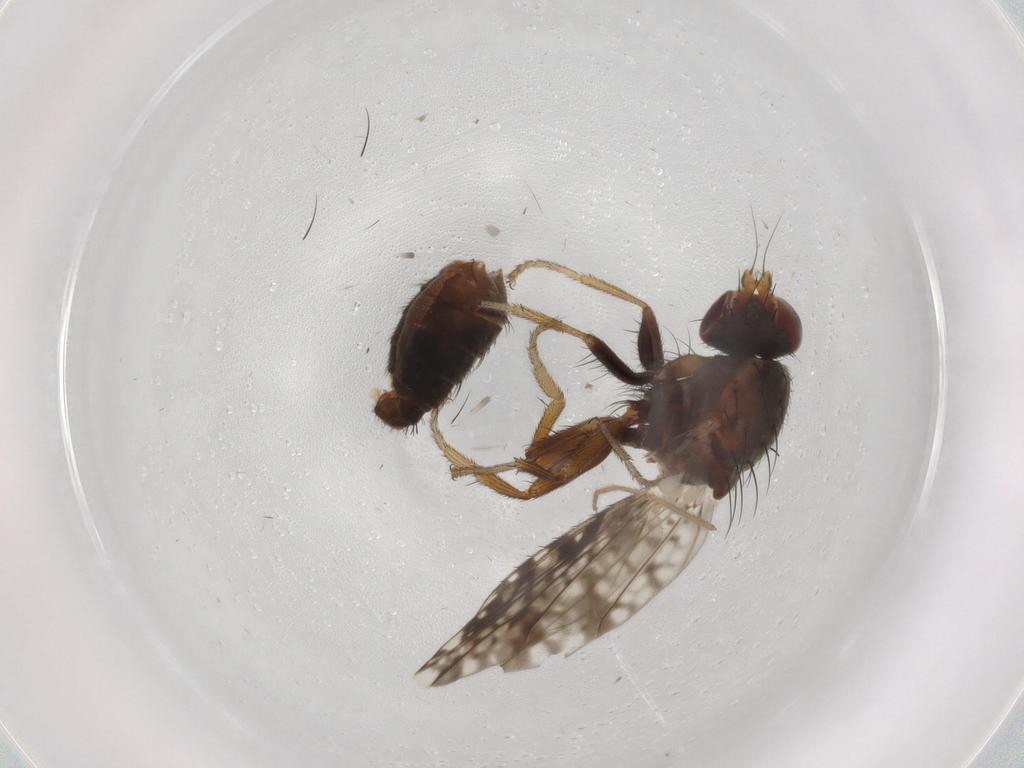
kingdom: Animalia
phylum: Arthropoda
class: Insecta
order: Diptera
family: Tephritidae
